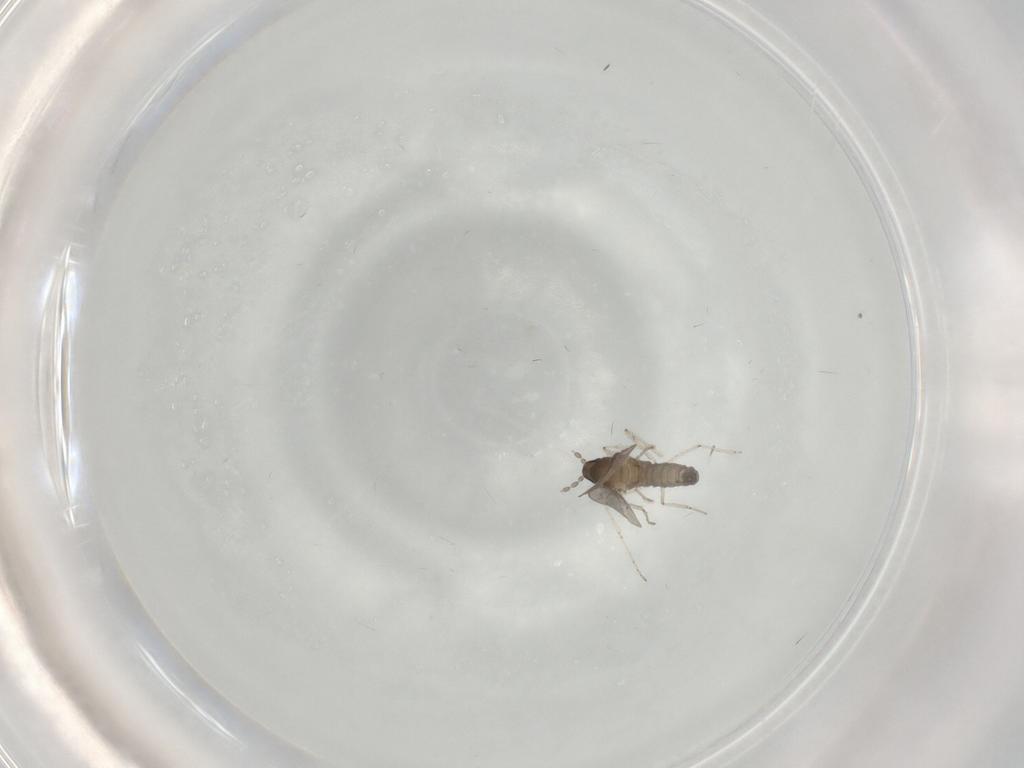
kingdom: Animalia
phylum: Arthropoda
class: Insecta
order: Diptera
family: Cecidomyiidae
